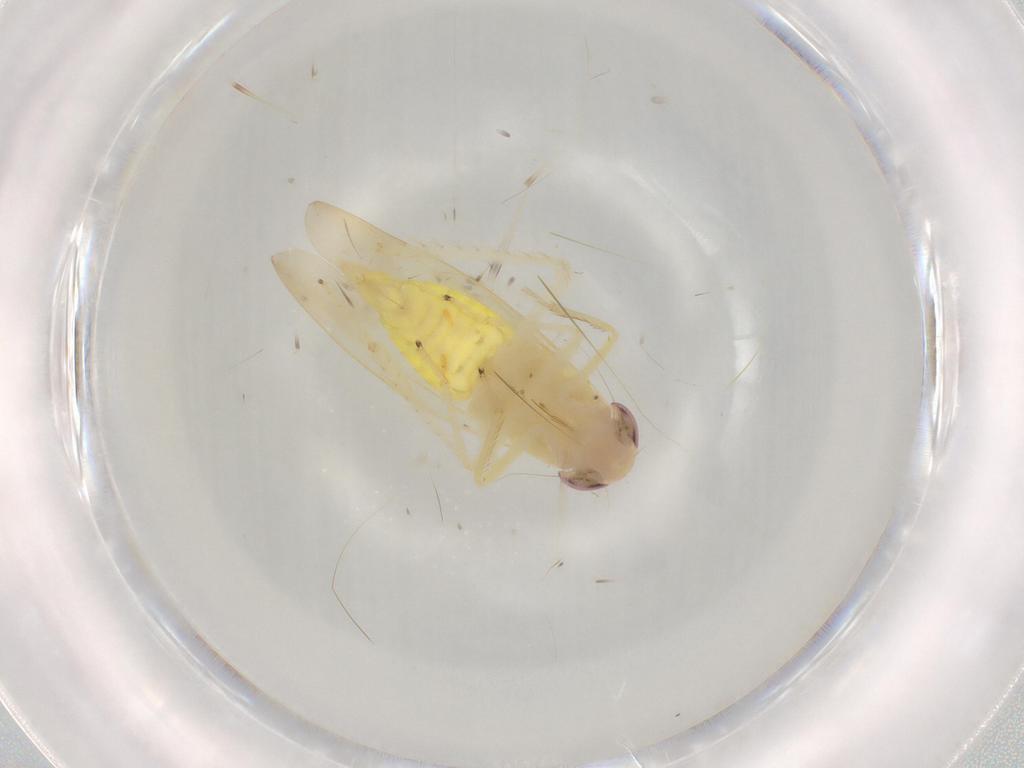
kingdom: Animalia
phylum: Arthropoda
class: Insecta
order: Hemiptera
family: Cicadellidae
